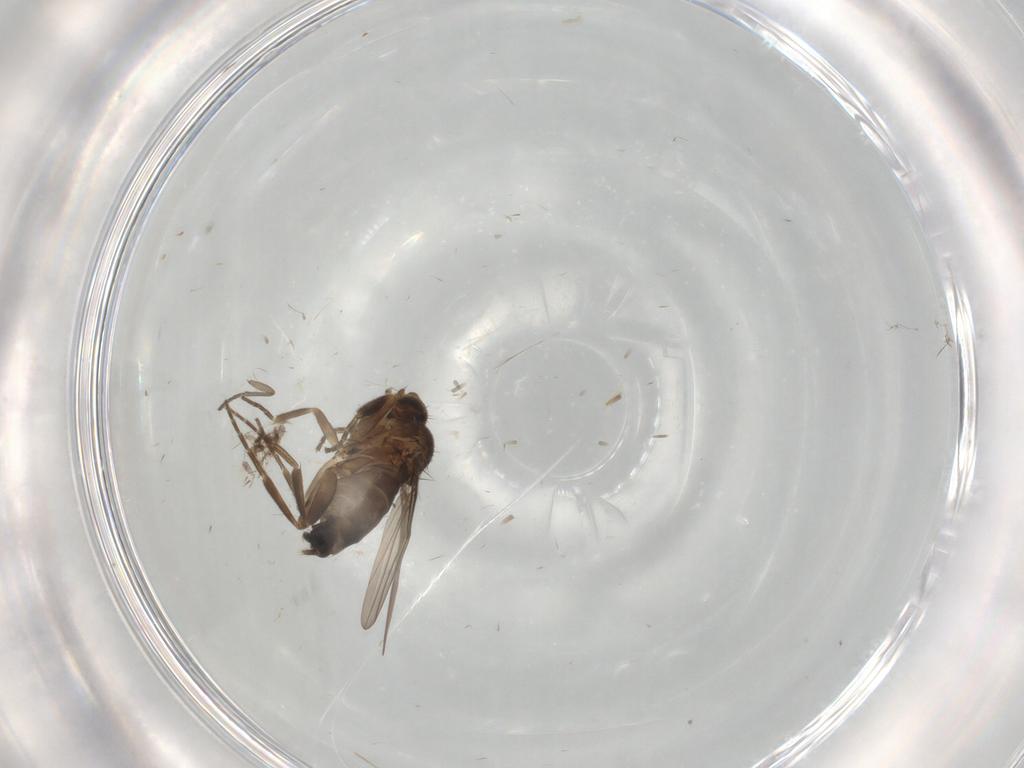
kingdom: Animalia
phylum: Arthropoda
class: Insecta
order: Diptera
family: Phoridae
